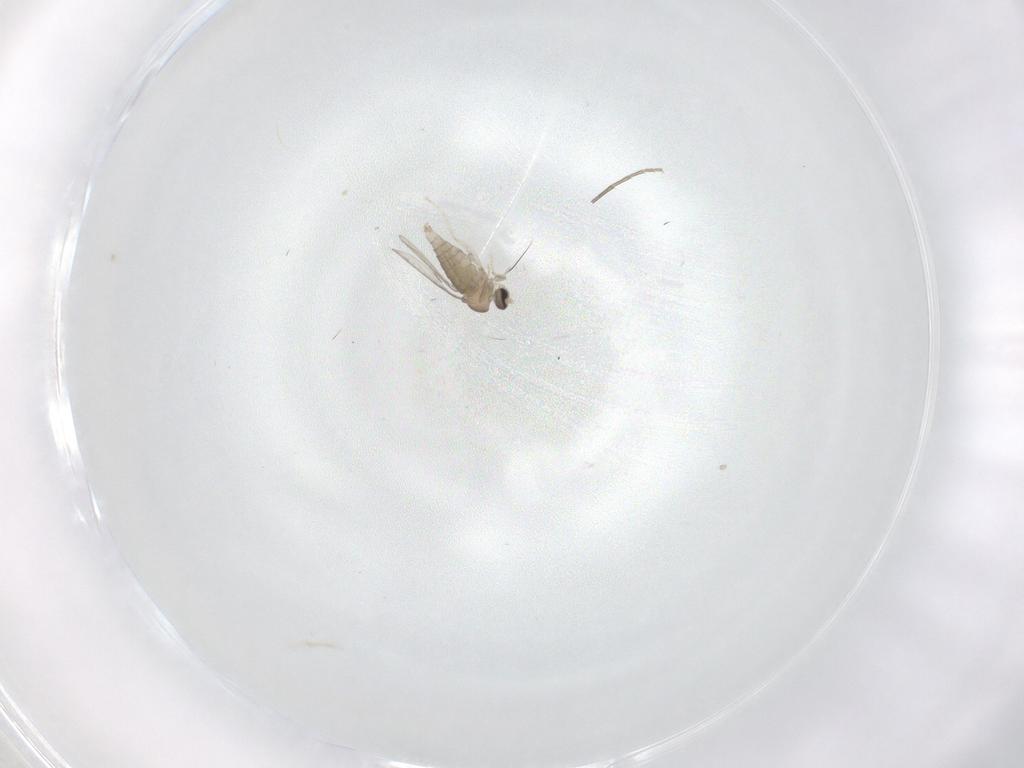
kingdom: Animalia
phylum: Arthropoda
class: Insecta
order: Diptera
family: Cecidomyiidae
